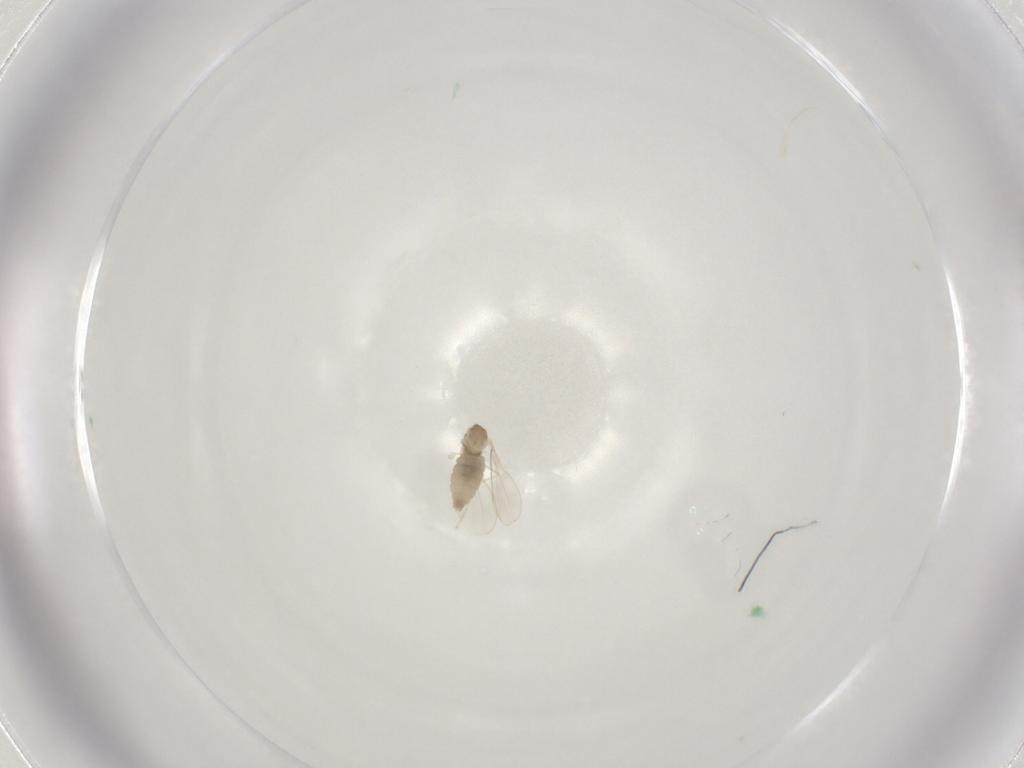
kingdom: Animalia
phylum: Arthropoda
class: Insecta
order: Diptera
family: Cecidomyiidae
